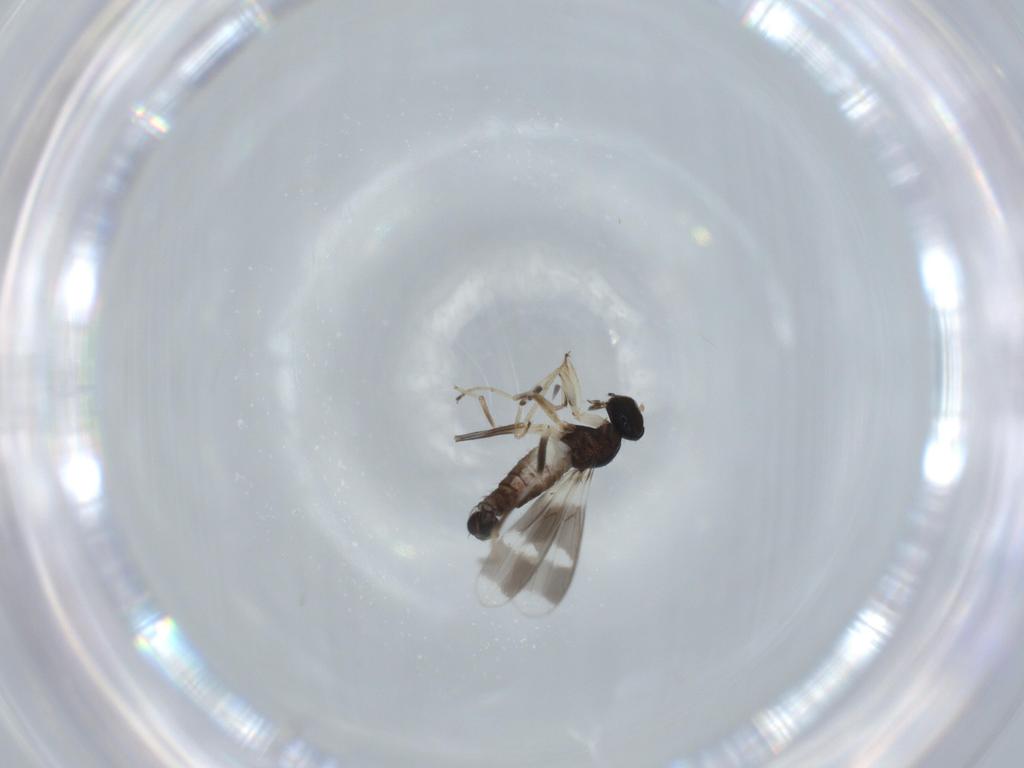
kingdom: Animalia
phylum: Arthropoda
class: Insecta
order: Diptera
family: Hybotidae
